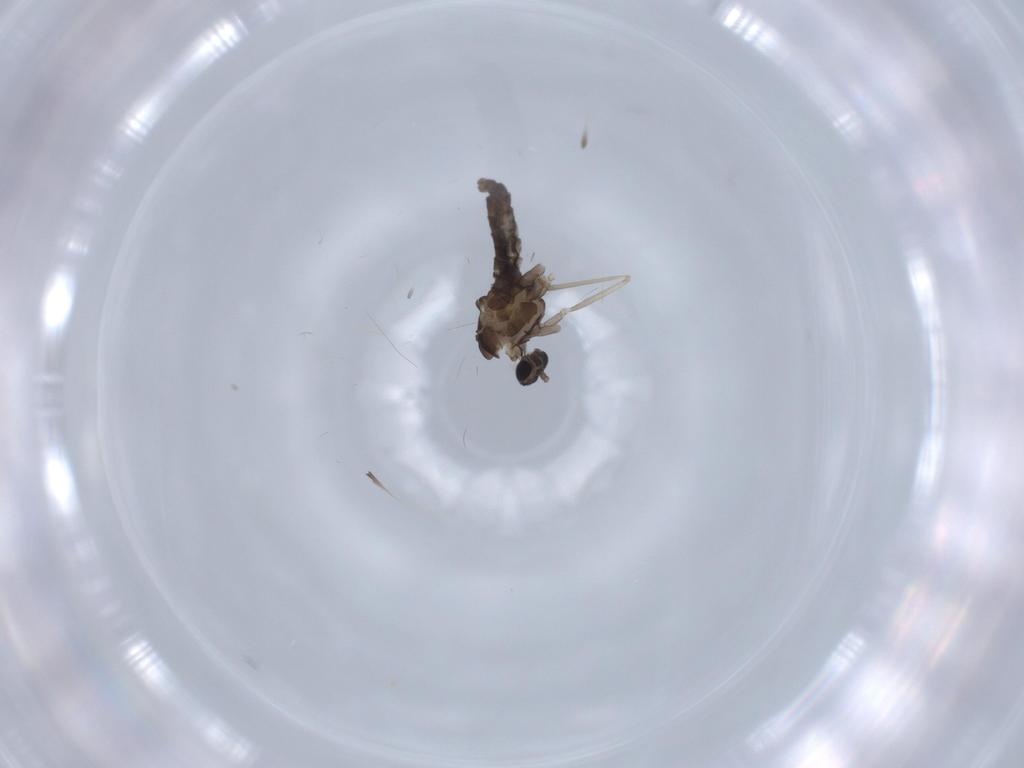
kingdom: Animalia
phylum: Arthropoda
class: Insecta
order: Diptera
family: Cecidomyiidae
